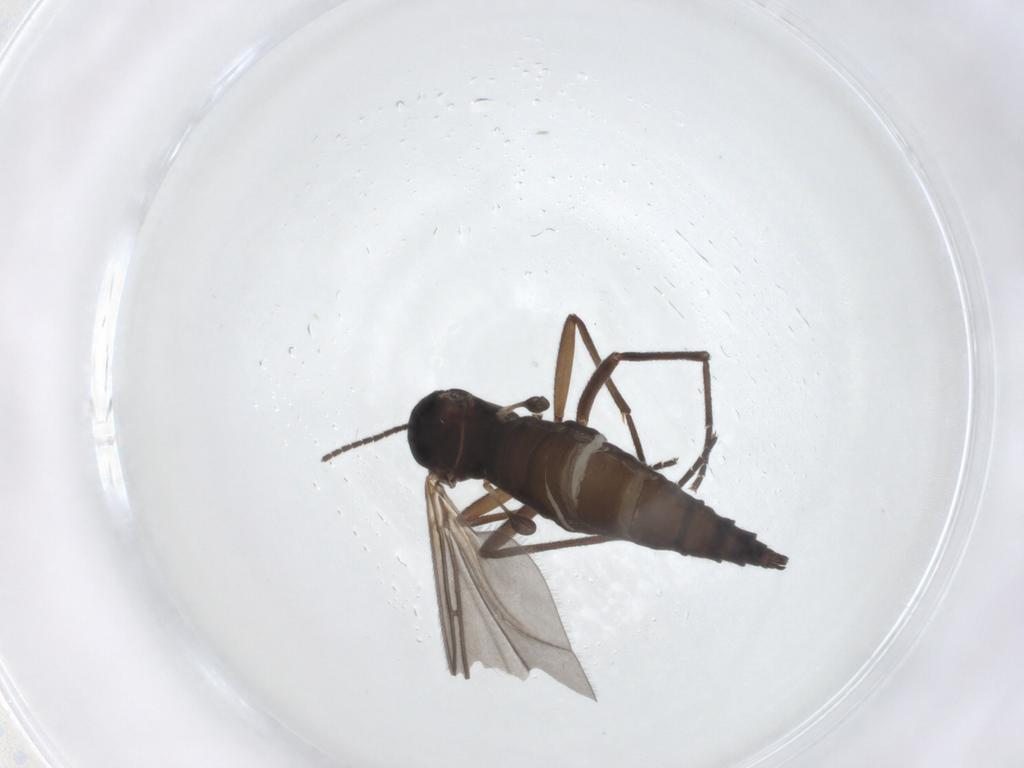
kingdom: Animalia
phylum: Arthropoda
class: Insecta
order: Diptera
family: Sciaridae
